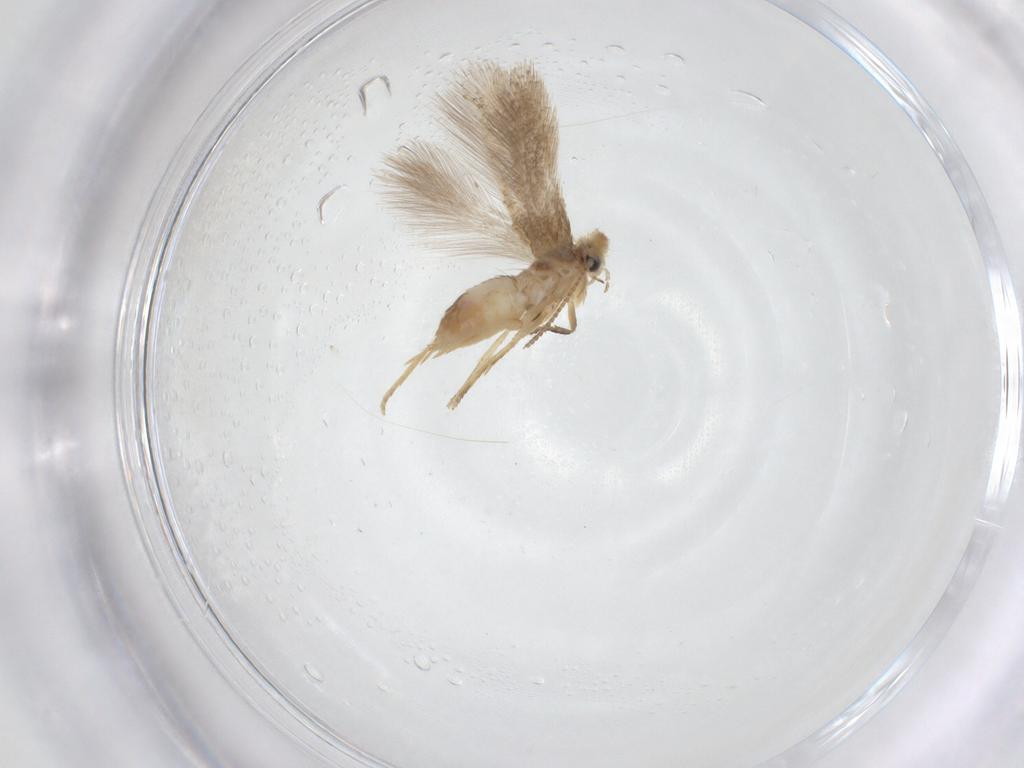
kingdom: Animalia
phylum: Arthropoda
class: Insecta
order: Lepidoptera
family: Nepticulidae
